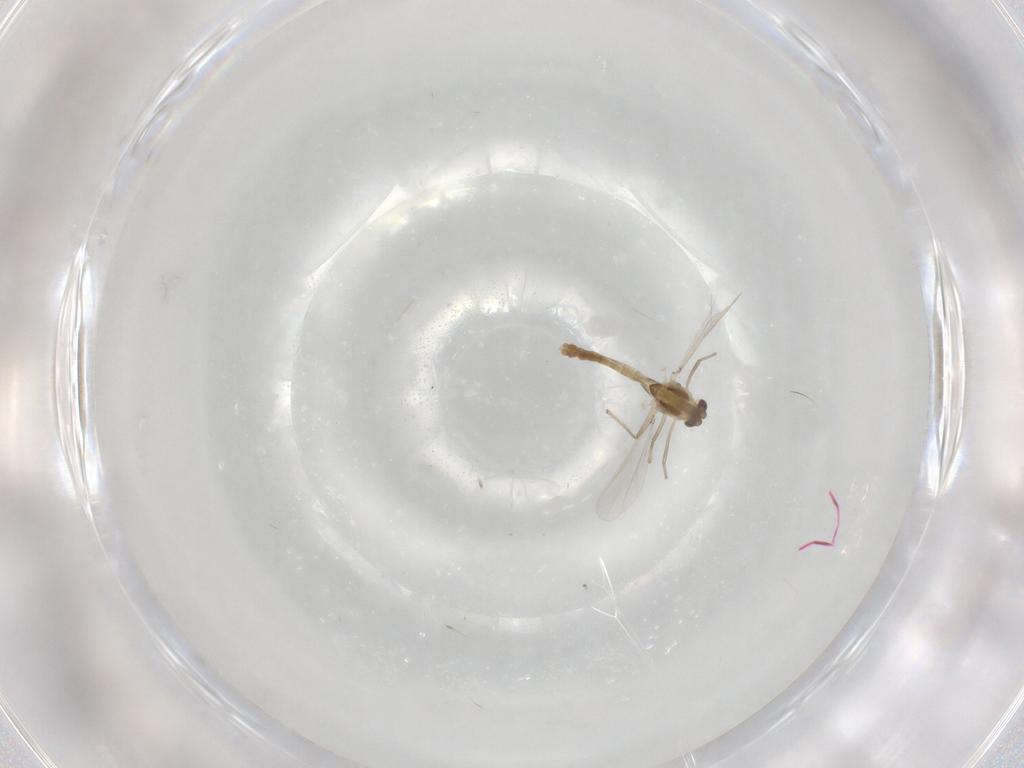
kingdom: Animalia
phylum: Arthropoda
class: Insecta
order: Diptera
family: Chironomidae
